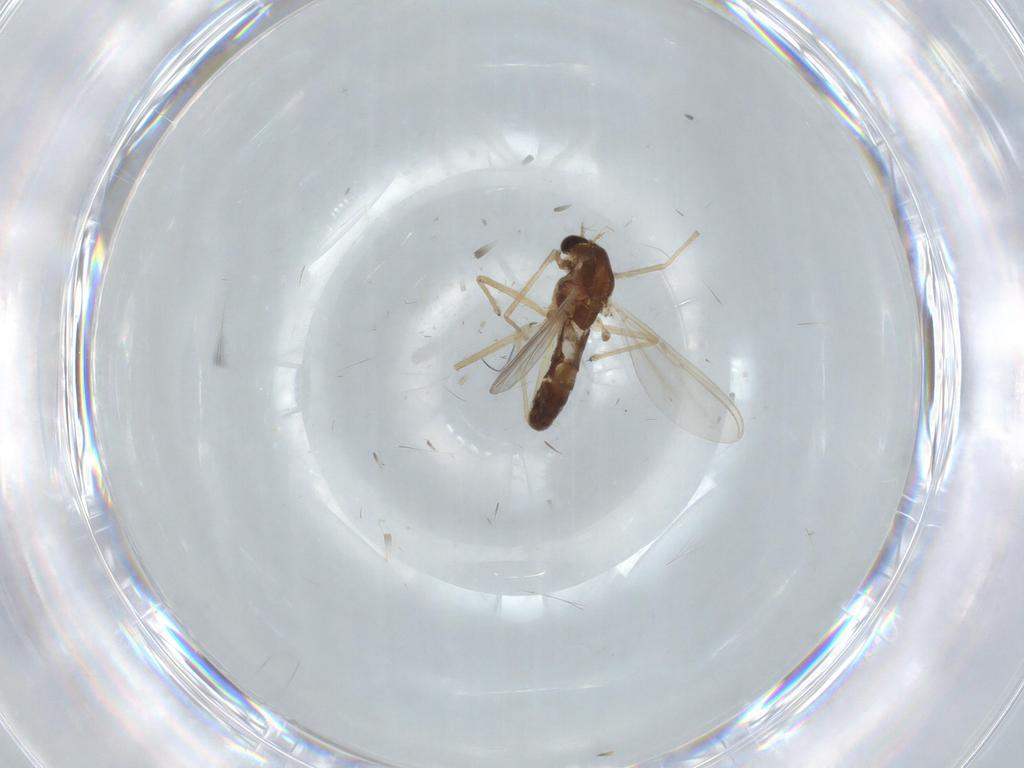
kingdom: Animalia
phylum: Arthropoda
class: Insecta
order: Diptera
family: Chironomidae
